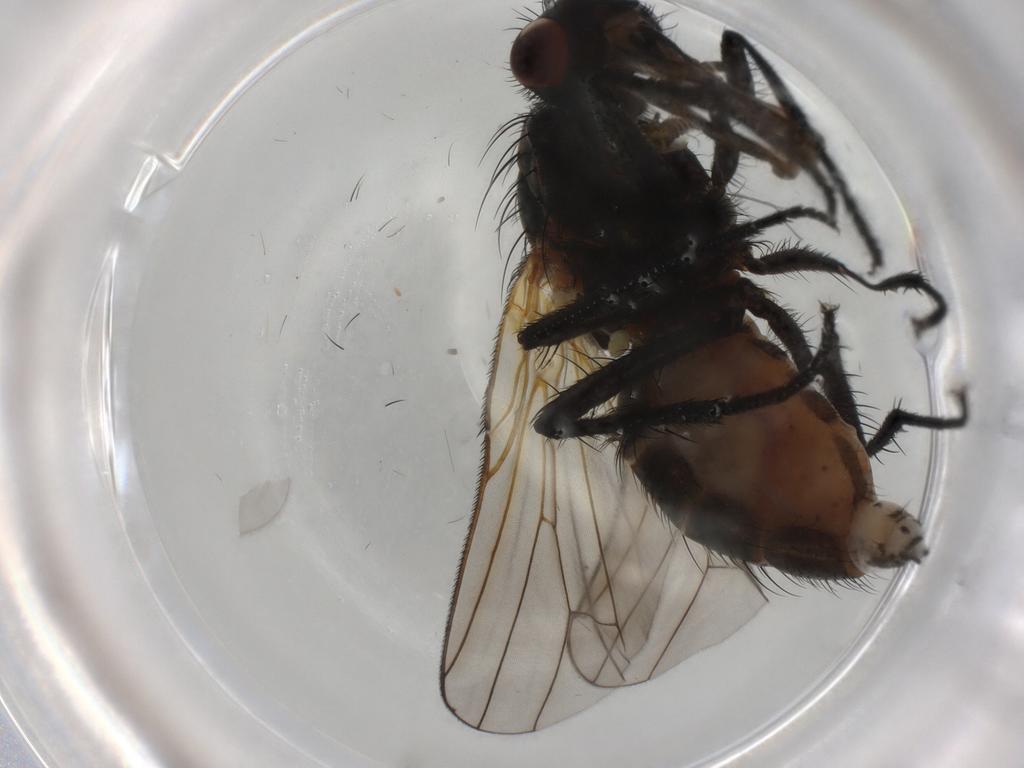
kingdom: Animalia
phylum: Arthropoda
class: Insecta
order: Diptera
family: Anthomyiidae
